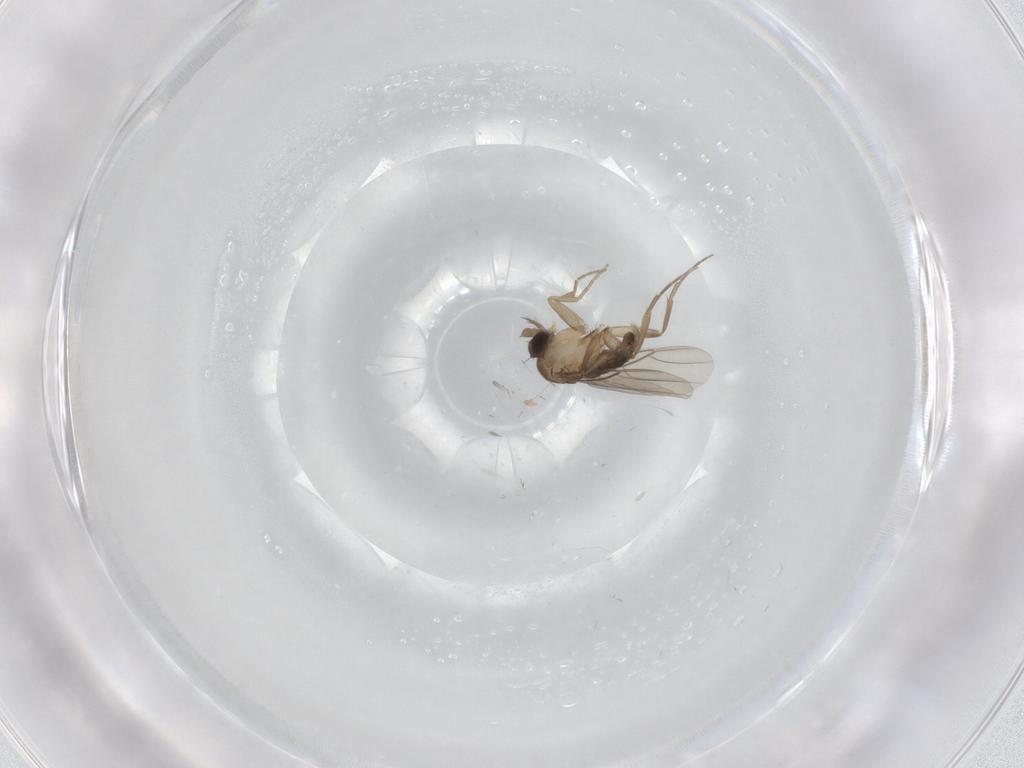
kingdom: Animalia
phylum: Arthropoda
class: Insecta
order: Diptera
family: Phoridae
